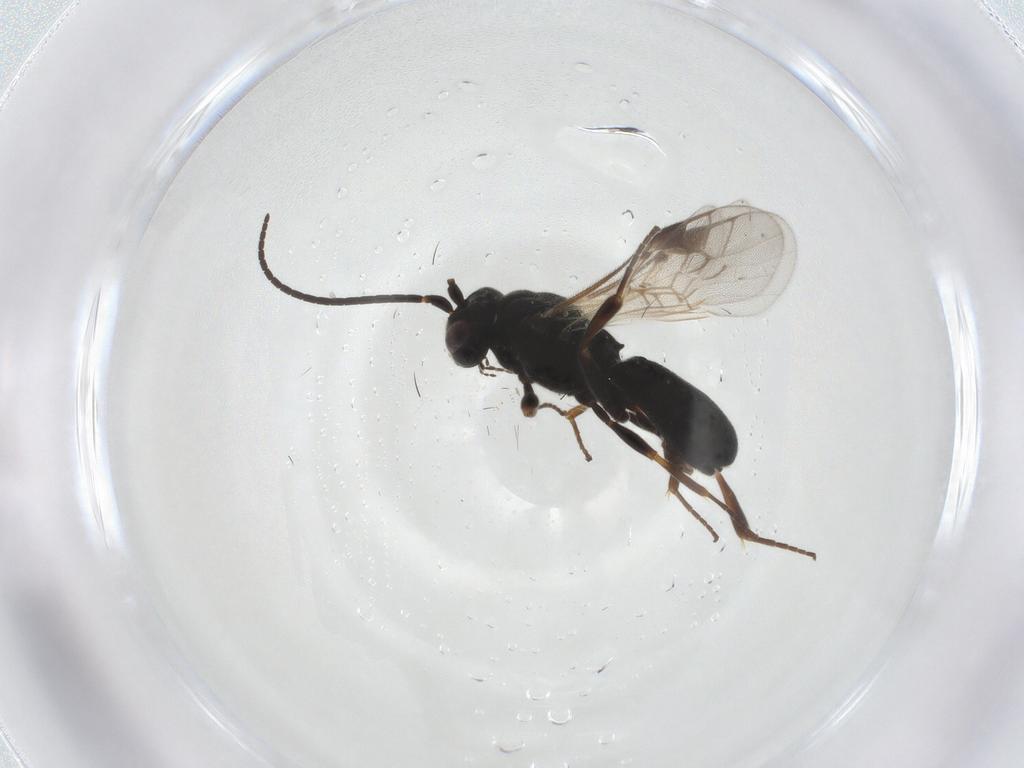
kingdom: Animalia
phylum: Arthropoda
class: Insecta
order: Hymenoptera
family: Braconidae
